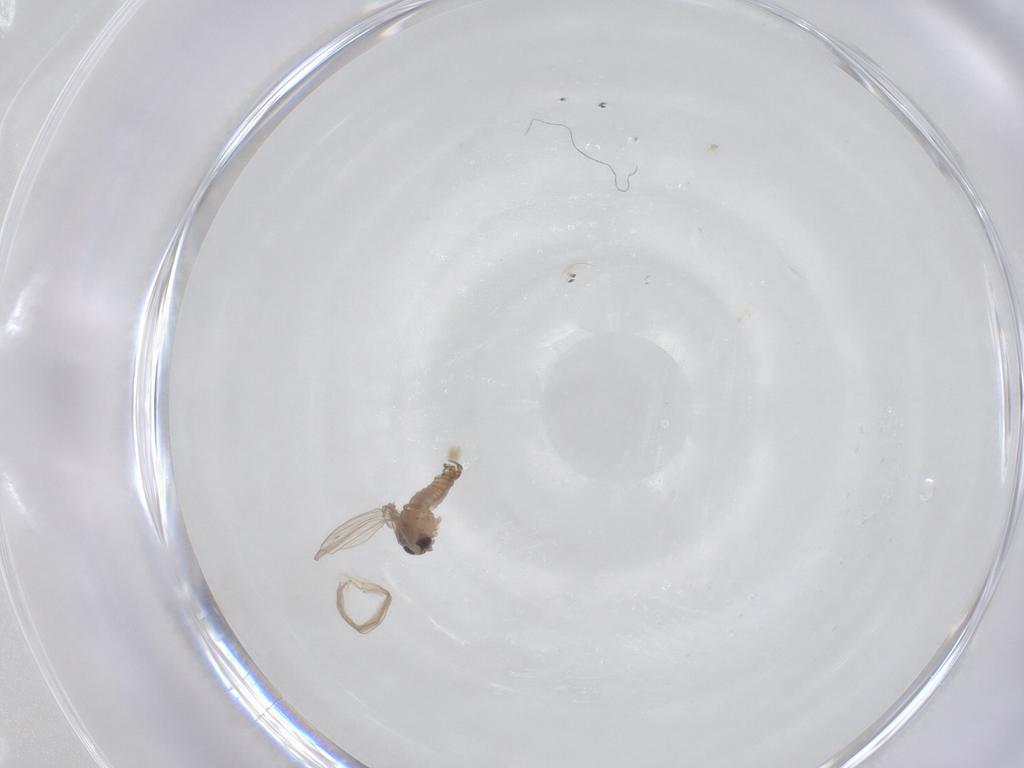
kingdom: Animalia
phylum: Arthropoda
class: Insecta
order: Diptera
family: Psychodidae
